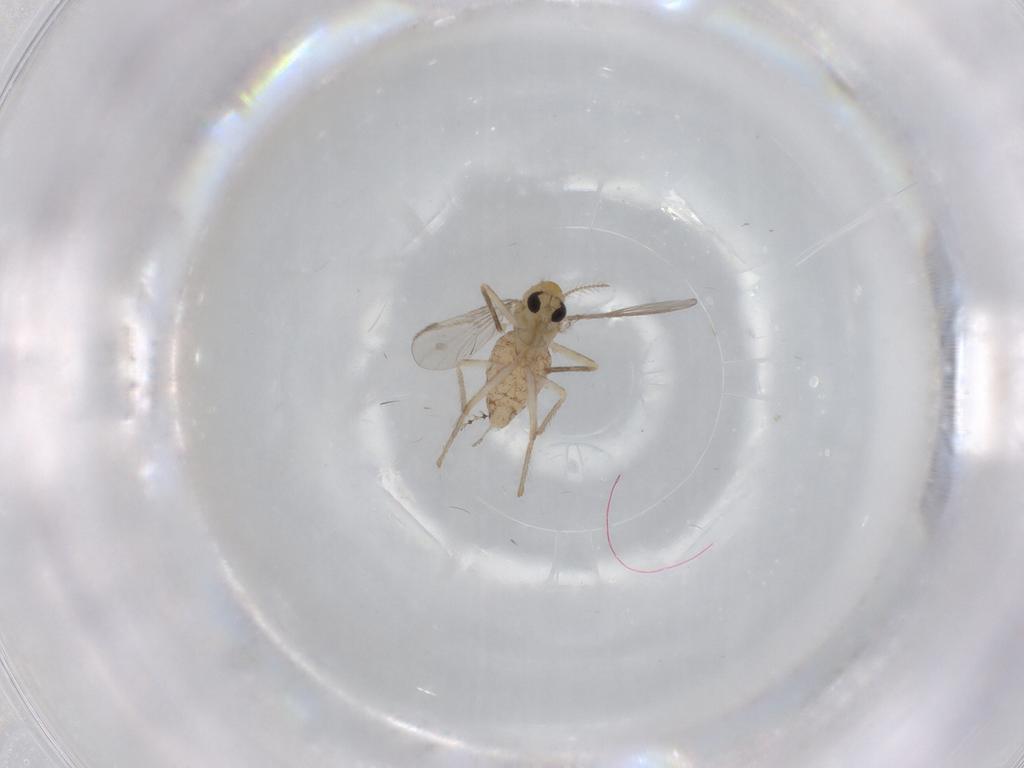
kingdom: Animalia
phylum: Arthropoda
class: Insecta
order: Diptera
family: Chironomidae
